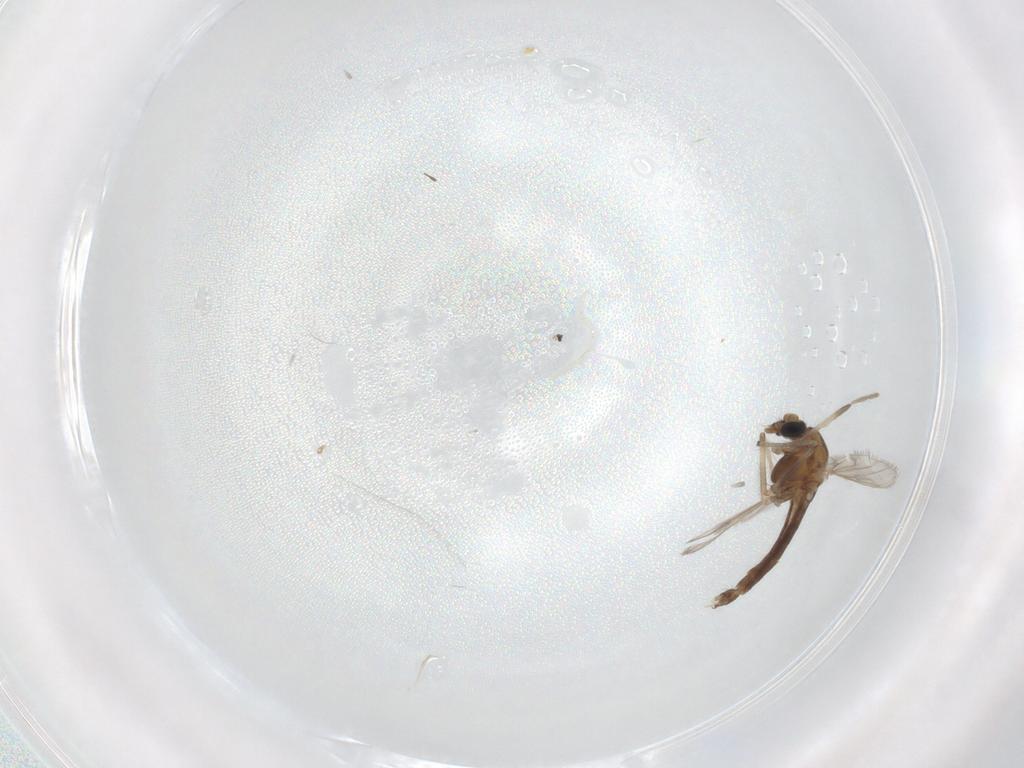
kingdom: Animalia
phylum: Arthropoda
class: Insecta
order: Diptera
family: Chironomidae
